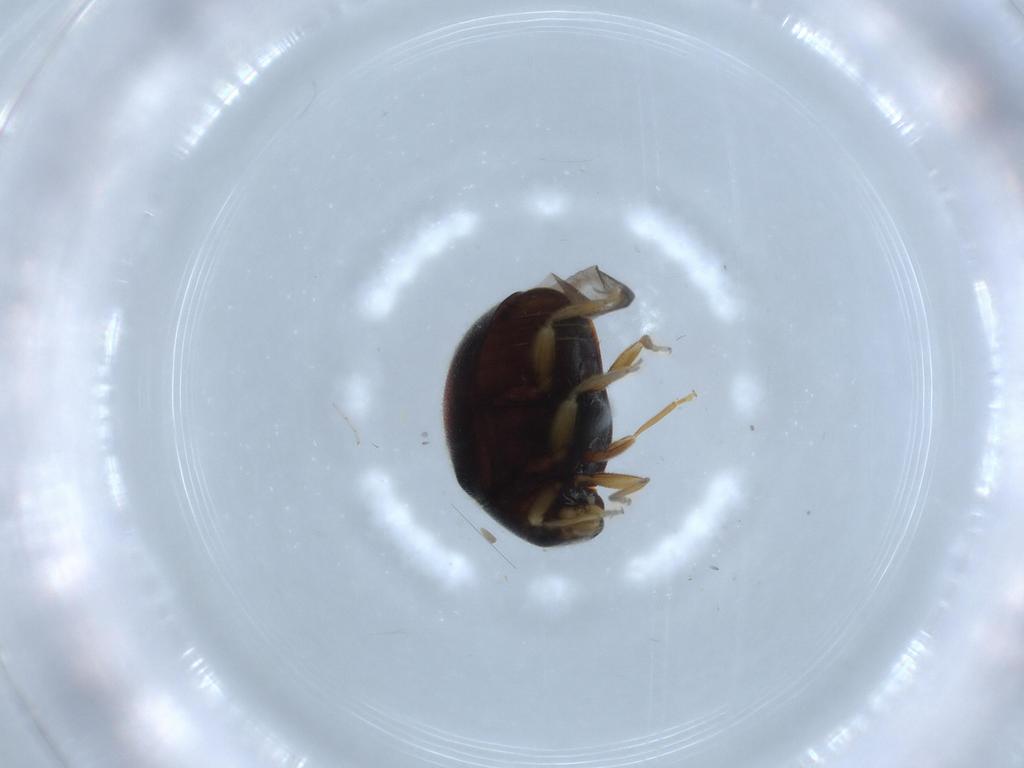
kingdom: Animalia
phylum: Arthropoda
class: Insecta
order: Coleoptera
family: Coccinellidae
